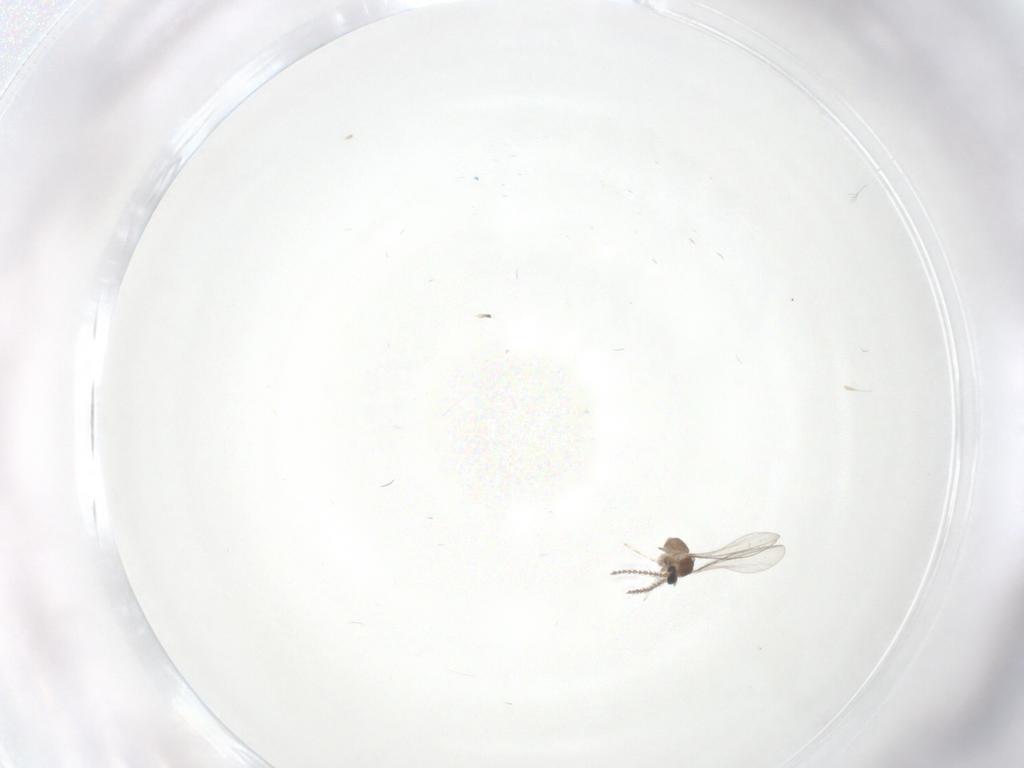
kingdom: Animalia
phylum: Arthropoda
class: Insecta
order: Diptera
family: Cecidomyiidae
